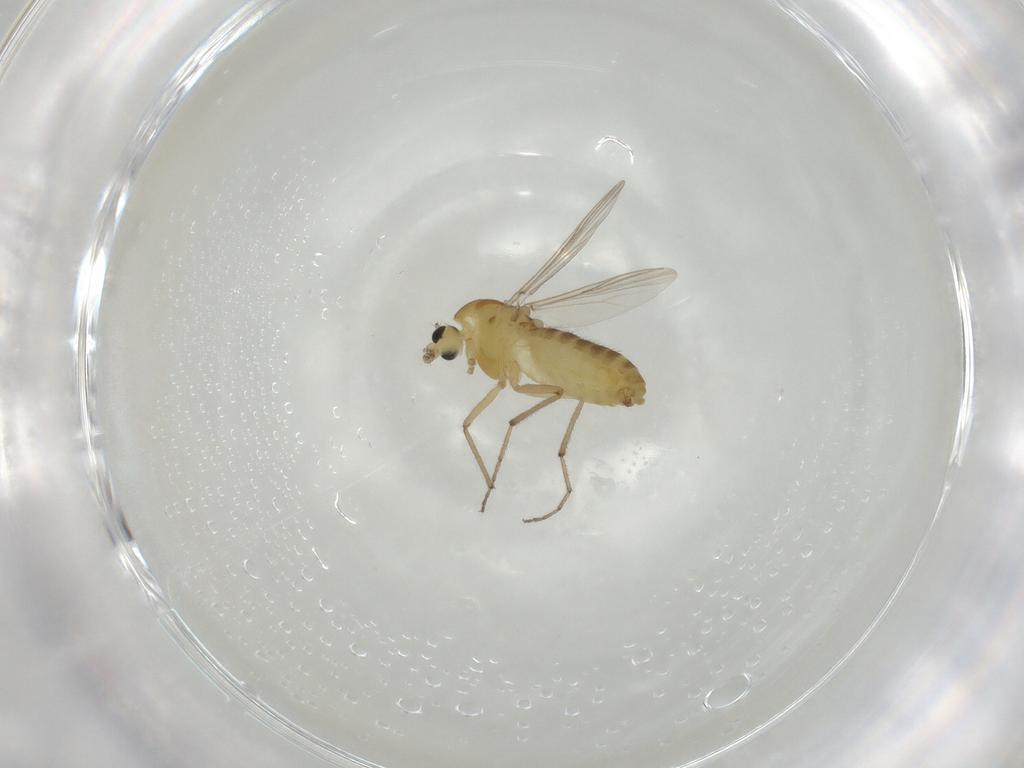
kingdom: Animalia
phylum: Arthropoda
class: Insecta
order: Diptera
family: Chironomidae
